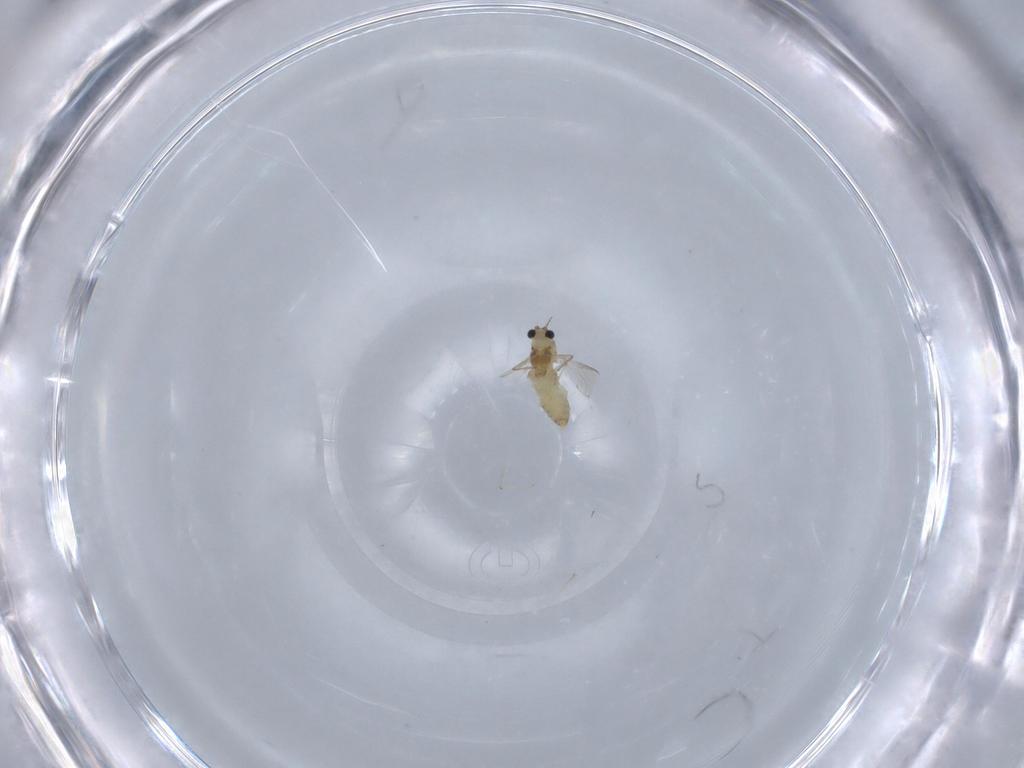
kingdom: Animalia
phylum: Arthropoda
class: Insecta
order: Diptera
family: Chironomidae
